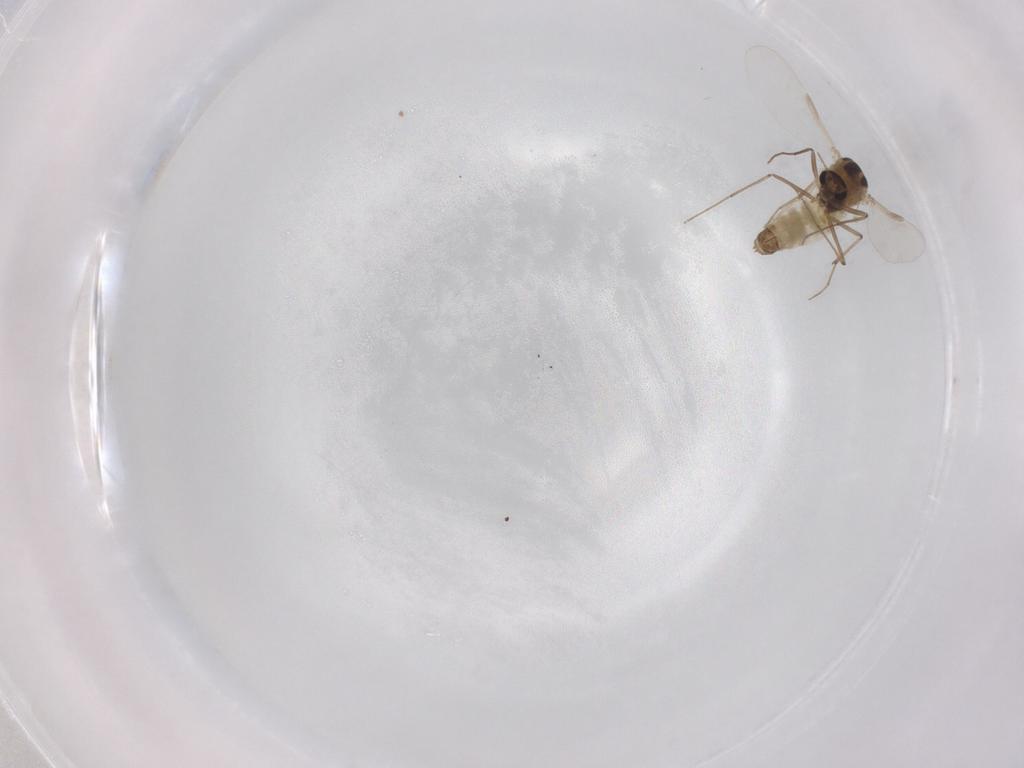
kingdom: Animalia
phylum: Arthropoda
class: Insecta
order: Diptera
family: Chironomidae
